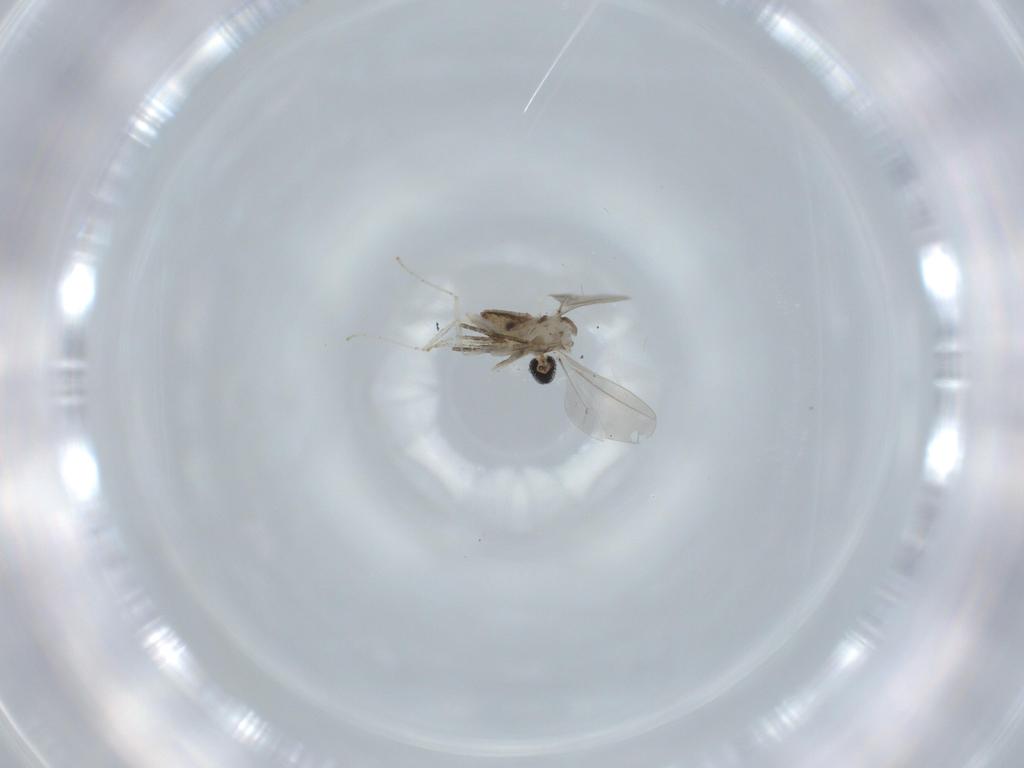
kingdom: Animalia
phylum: Arthropoda
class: Insecta
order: Diptera
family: Cecidomyiidae
